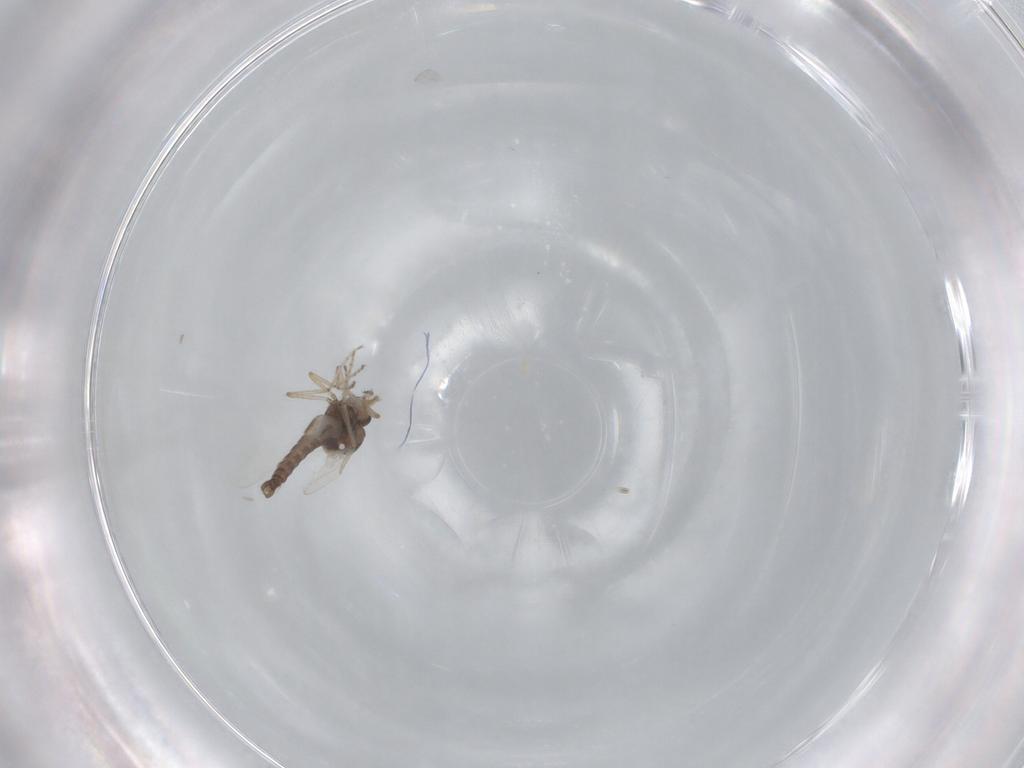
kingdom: Animalia
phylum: Arthropoda
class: Insecta
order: Diptera
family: Ceratopogonidae
